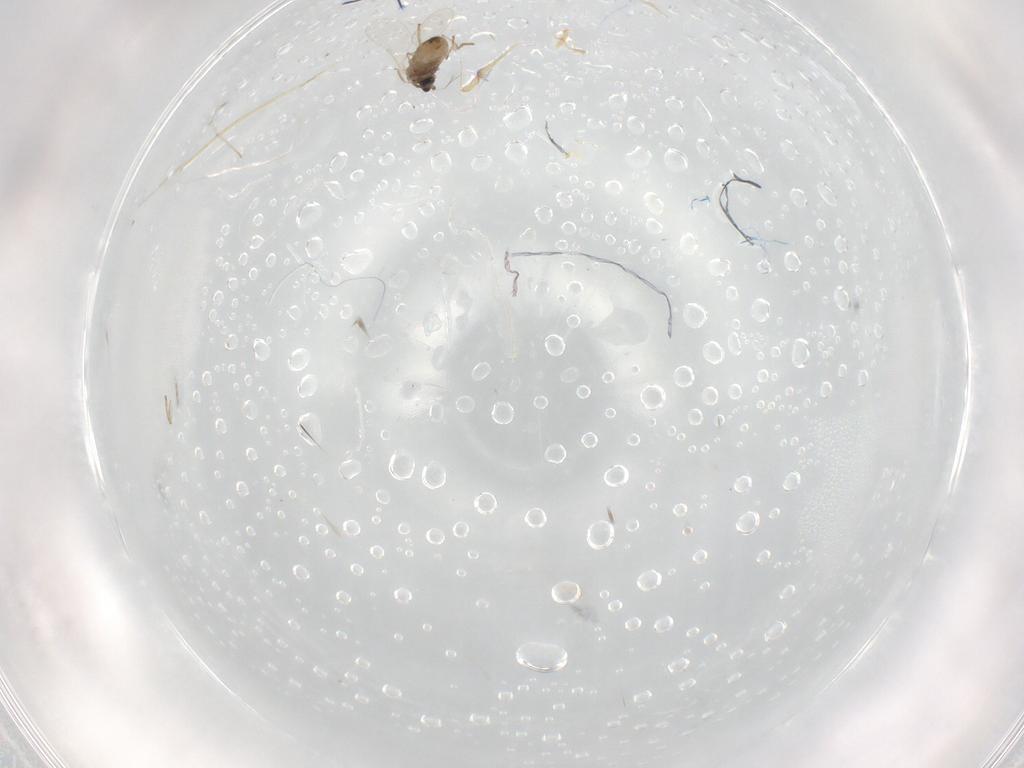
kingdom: Animalia
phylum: Arthropoda
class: Insecta
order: Diptera
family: Cecidomyiidae
